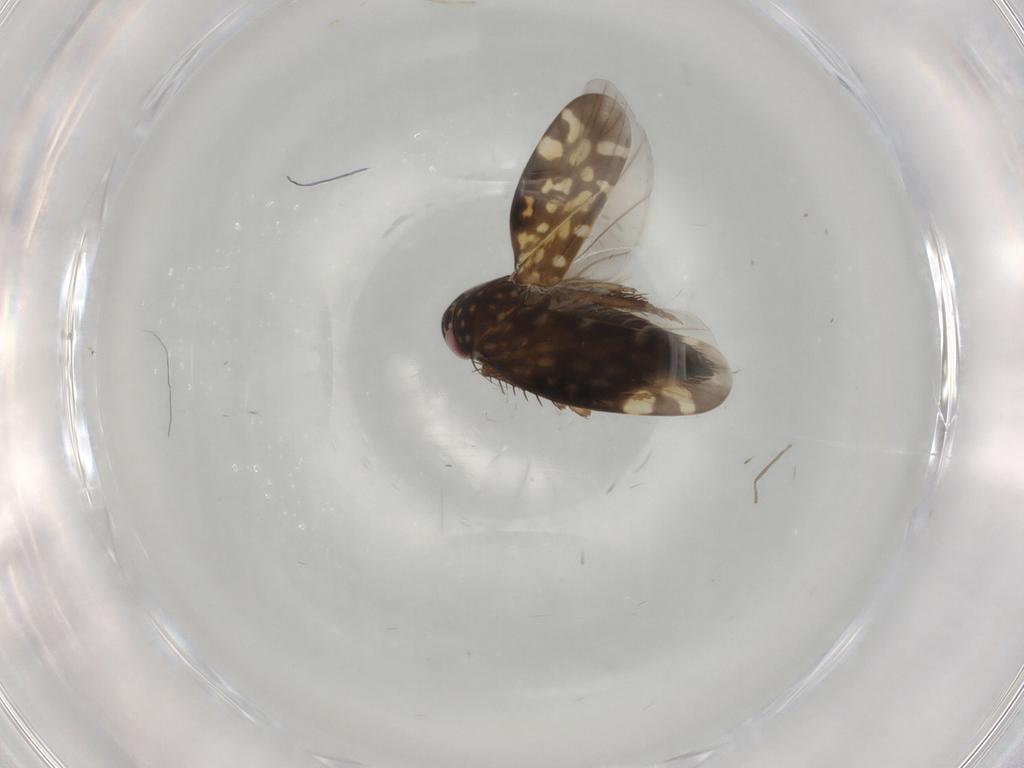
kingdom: Animalia
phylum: Arthropoda
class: Insecta
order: Hemiptera
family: Cicadellidae
